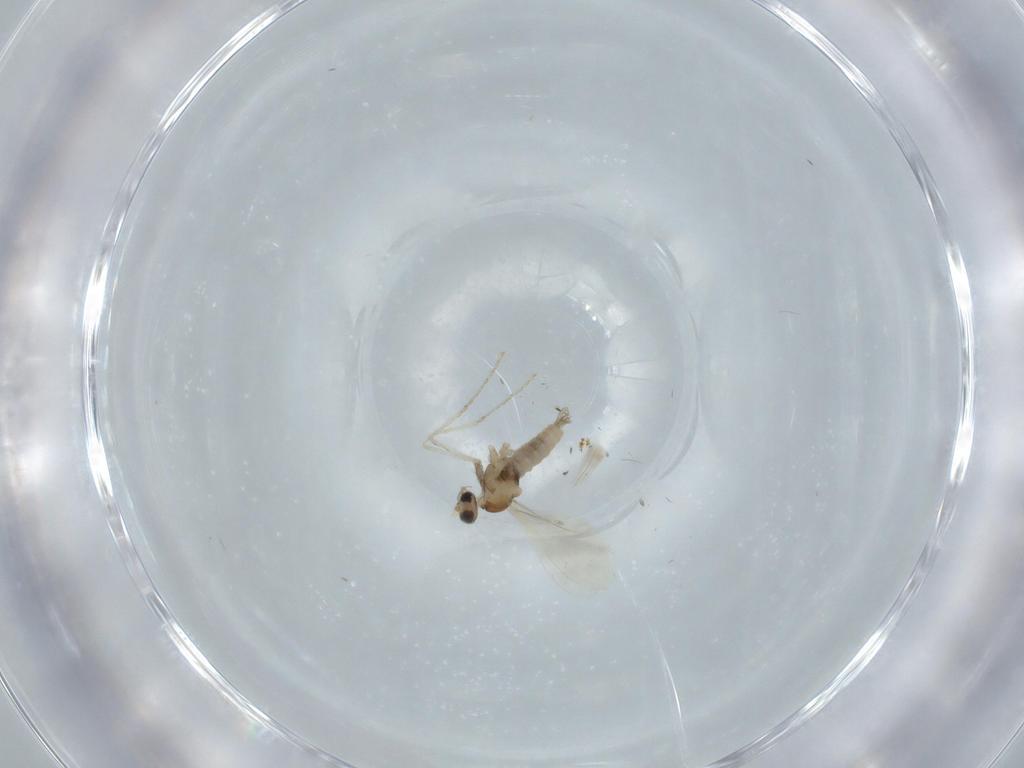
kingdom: Animalia
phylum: Arthropoda
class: Insecta
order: Diptera
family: Cecidomyiidae
